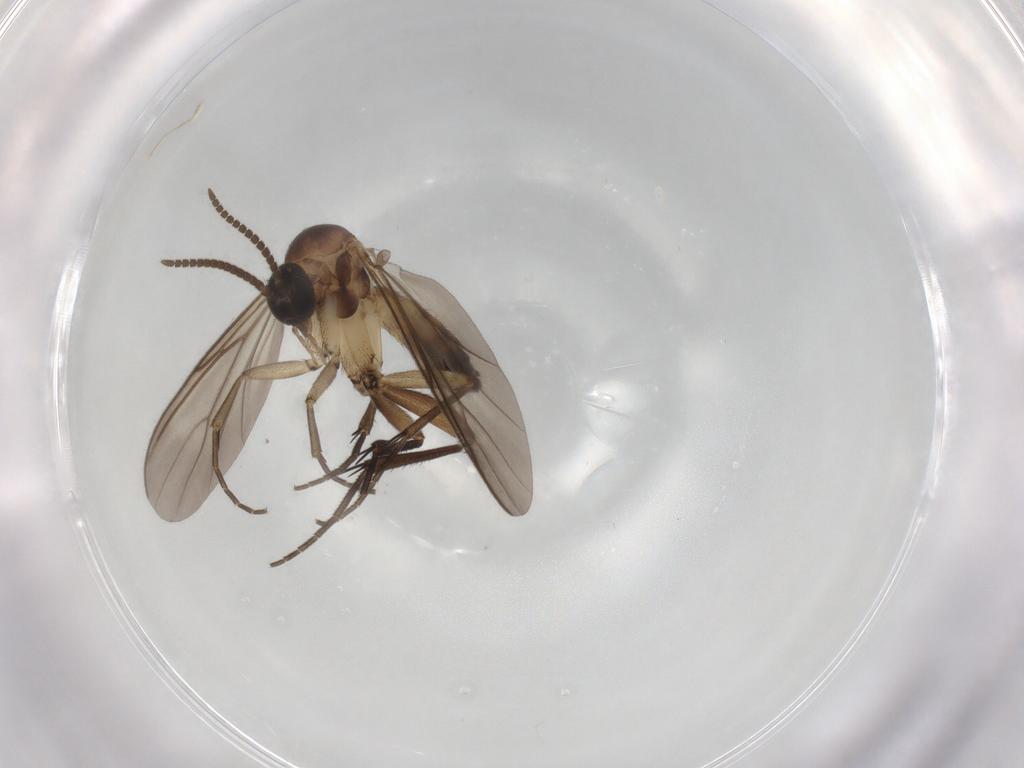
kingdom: Animalia
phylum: Arthropoda
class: Insecta
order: Diptera
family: Mycetophilidae
